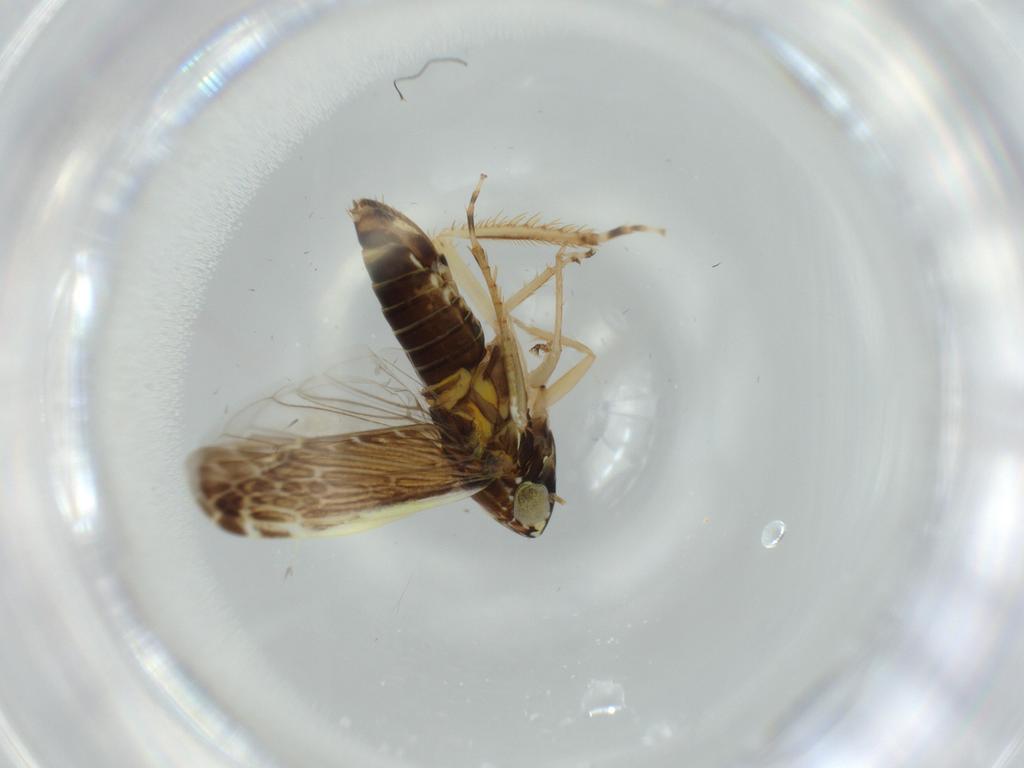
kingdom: Animalia
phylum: Arthropoda
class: Insecta
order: Hemiptera
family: Cicadellidae
